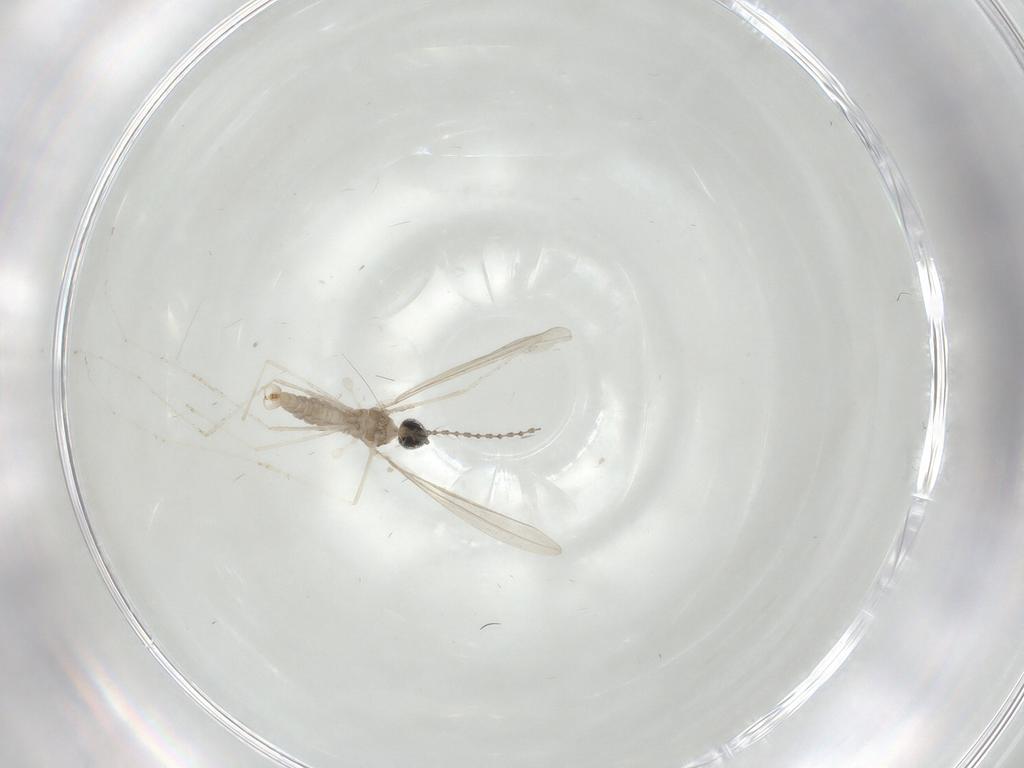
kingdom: Animalia
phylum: Arthropoda
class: Insecta
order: Diptera
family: Cecidomyiidae
